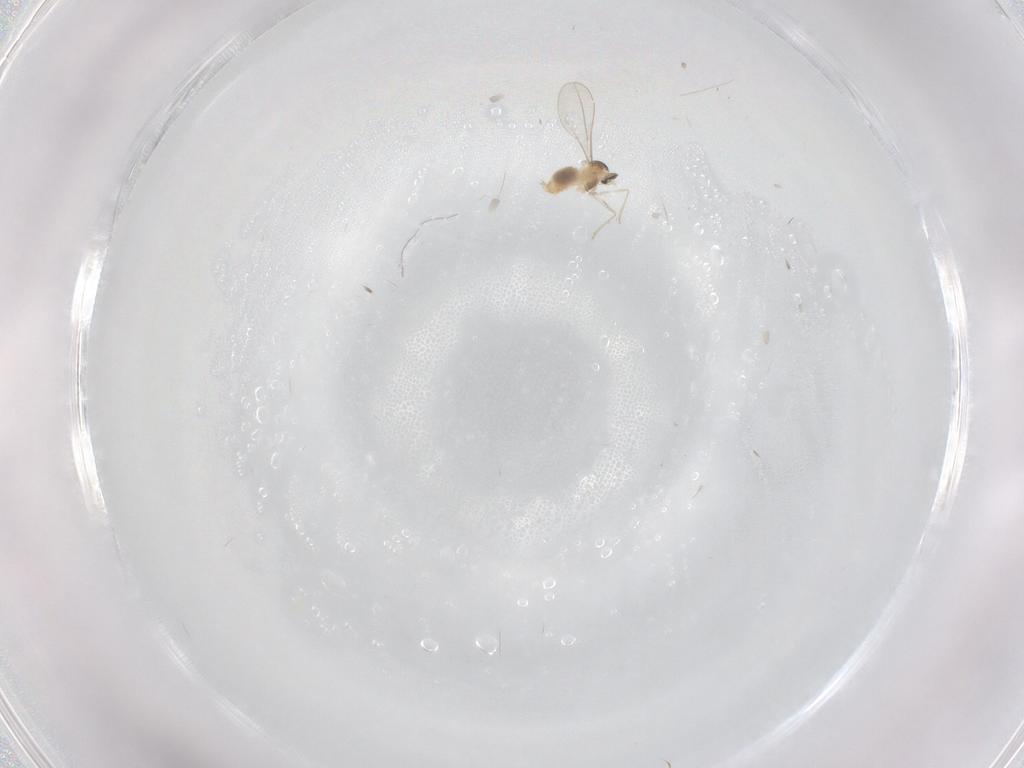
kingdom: Animalia
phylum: Arthropoda
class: Insecta
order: Diptera
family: Cecidomyiidae
